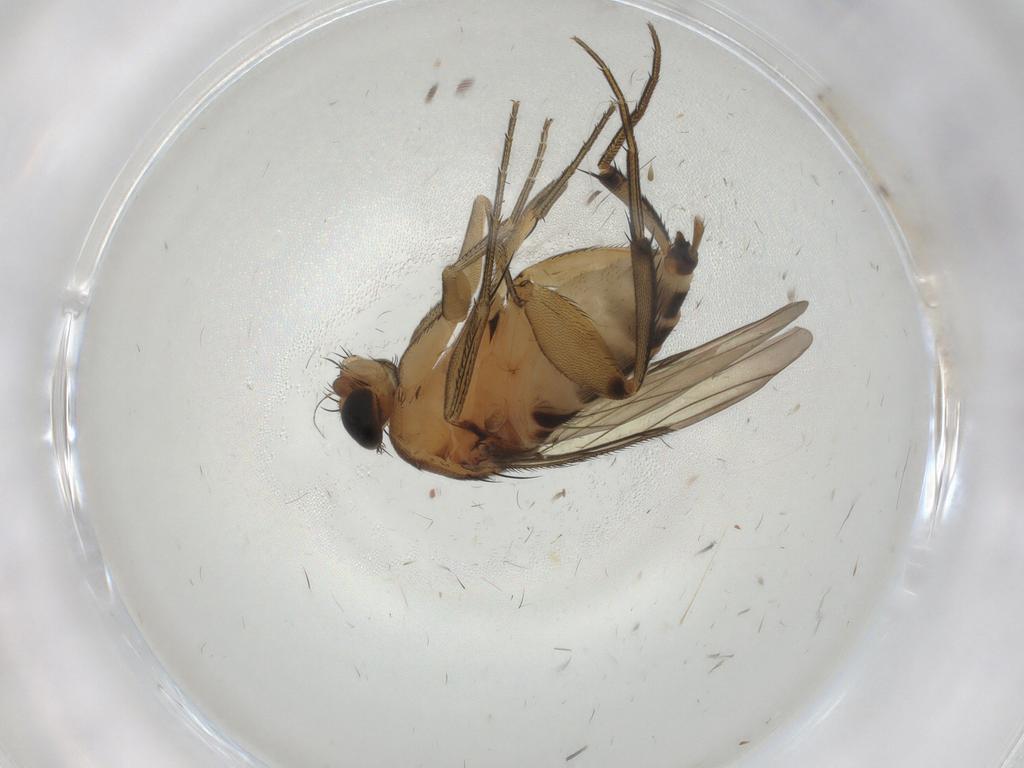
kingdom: Animalia
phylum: Arthropoda
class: Insecta
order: Diptera
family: Phoridae
